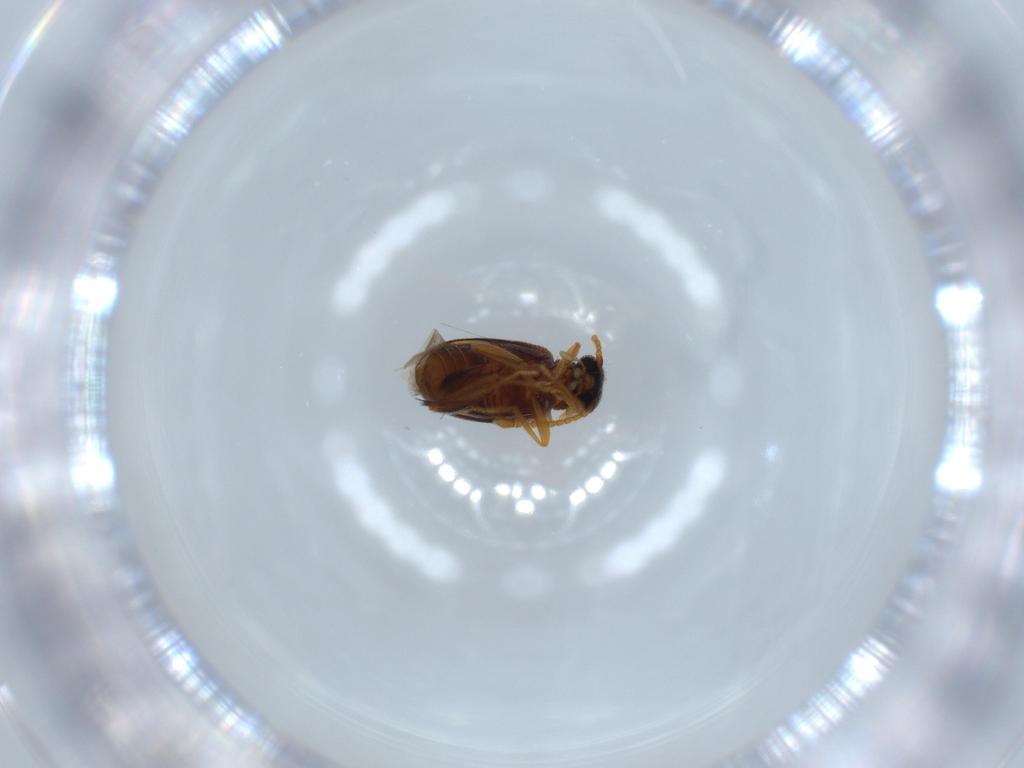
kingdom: Animalia
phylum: Arthropoda
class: Insecta
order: Coleoptera
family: Aderidae
